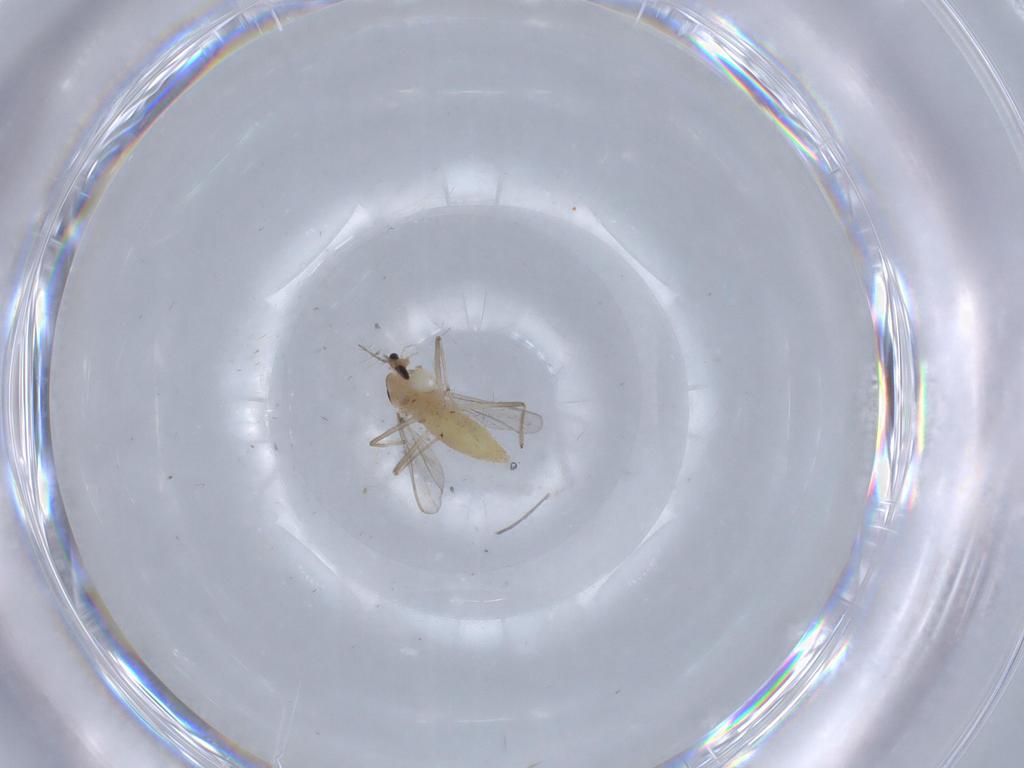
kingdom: Animalia
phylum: Arthropoda
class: Insecta
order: Diptera
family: Chironomidae
